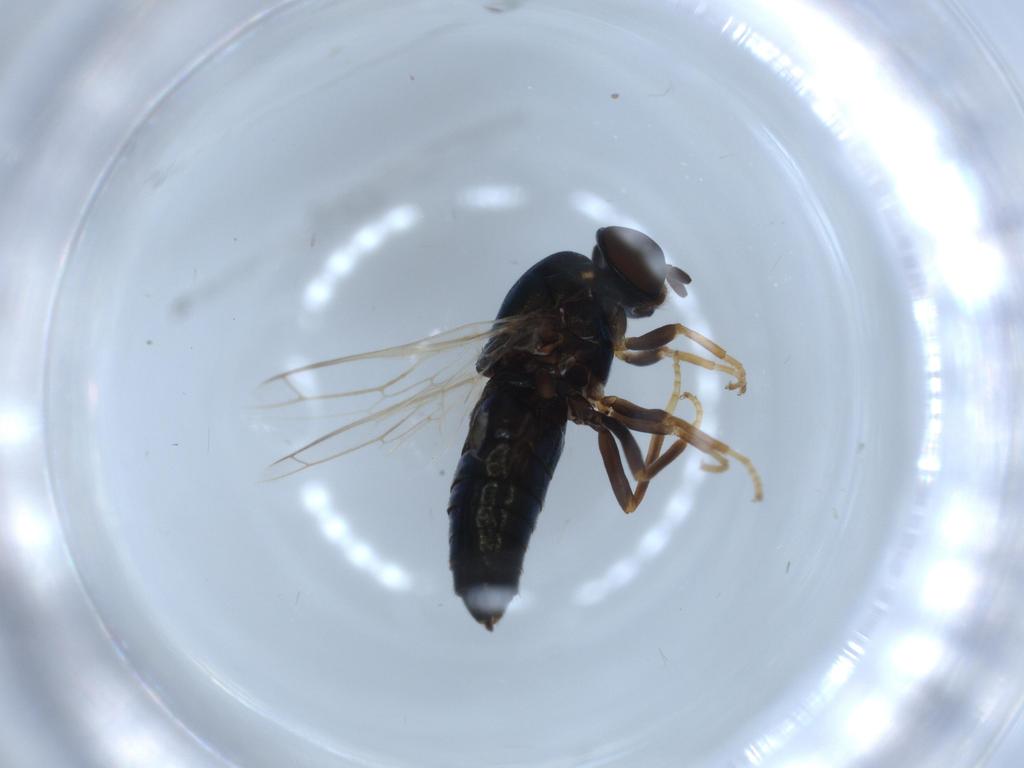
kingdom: Animalia
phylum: Arthropoda
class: Insecta
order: Diptera
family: Scenopinidae
